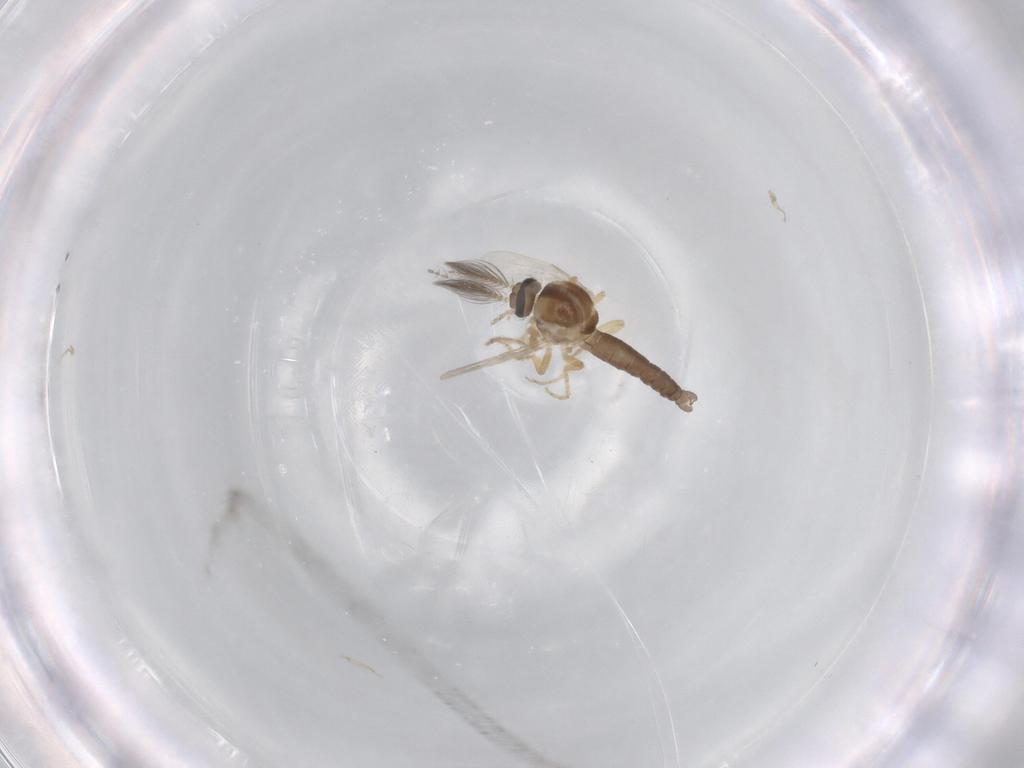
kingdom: Animalia
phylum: Arthropoda
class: Insecta
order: Diptera
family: Ceratopogonidae
